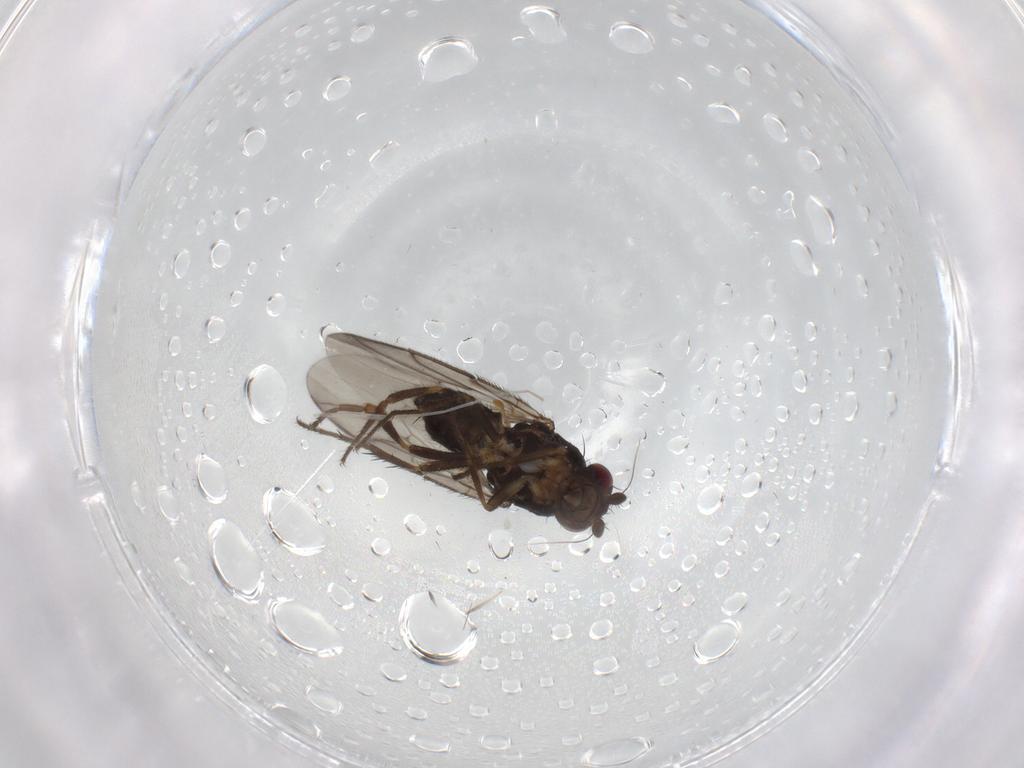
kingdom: Animalia
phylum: Arthropoda
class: Insecta
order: Diptera
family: Sphaeroceridae
